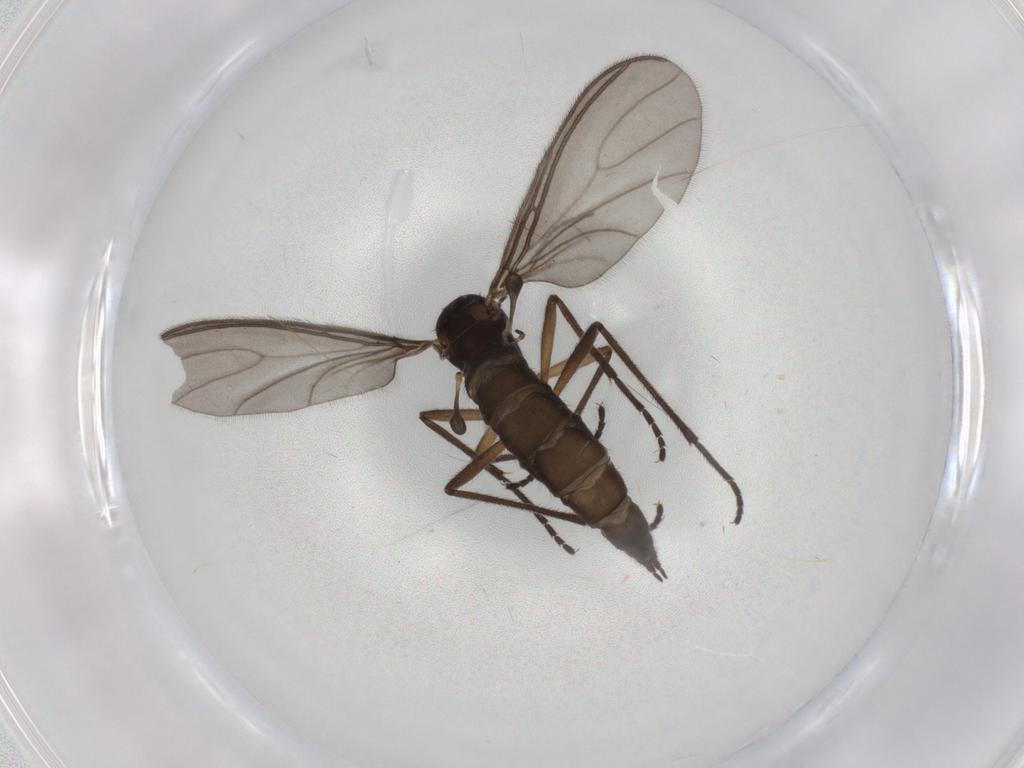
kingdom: Animalia
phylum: Arthropoda
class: Insecta
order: Diptera
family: Sciaridae
